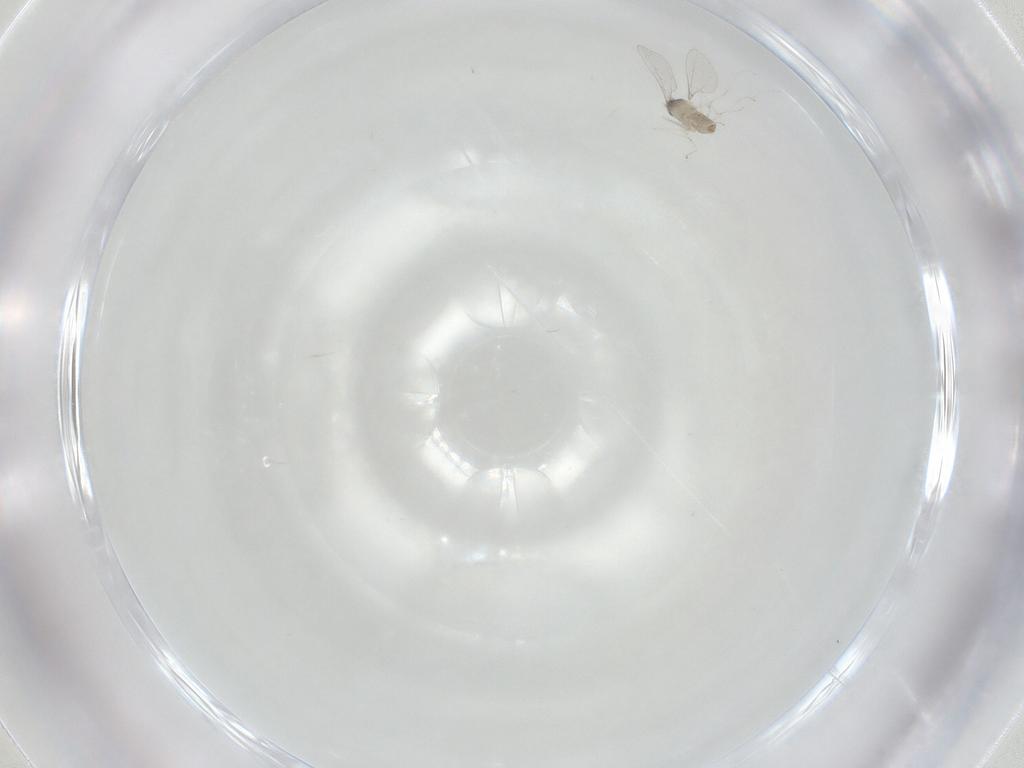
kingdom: Animalia
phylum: Arthropoda
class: Insecta
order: Diptera
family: Cecidomyiidae
